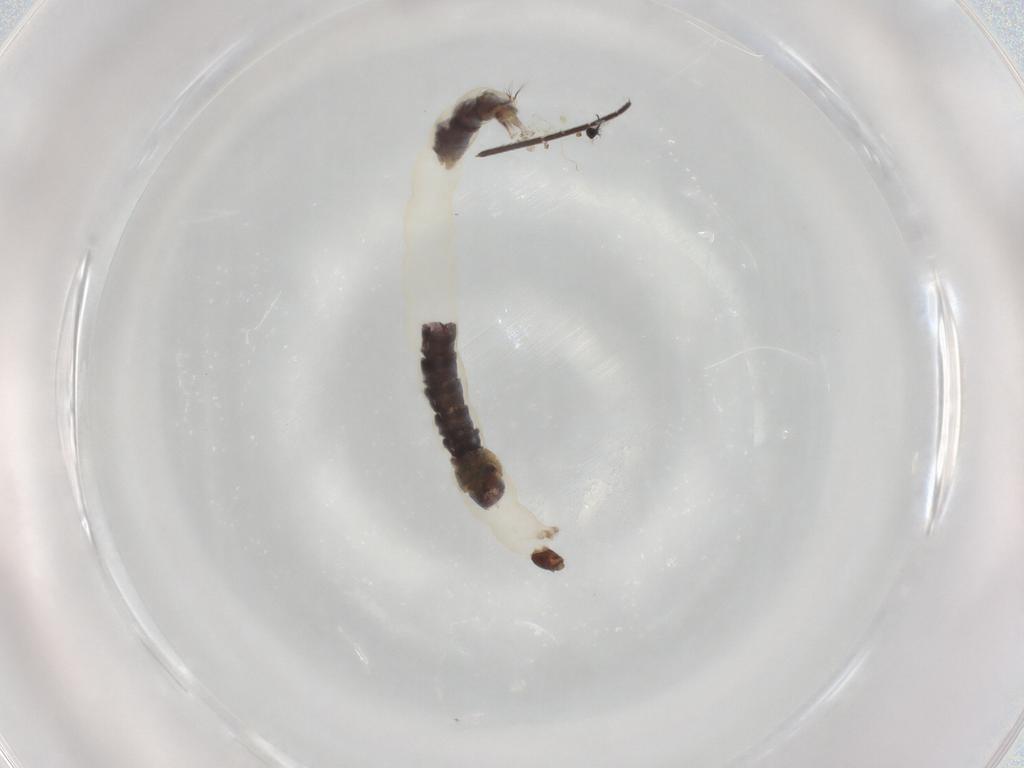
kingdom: Animalia
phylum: Arthropoda
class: Insecta
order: Diptera
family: Chironomidae
